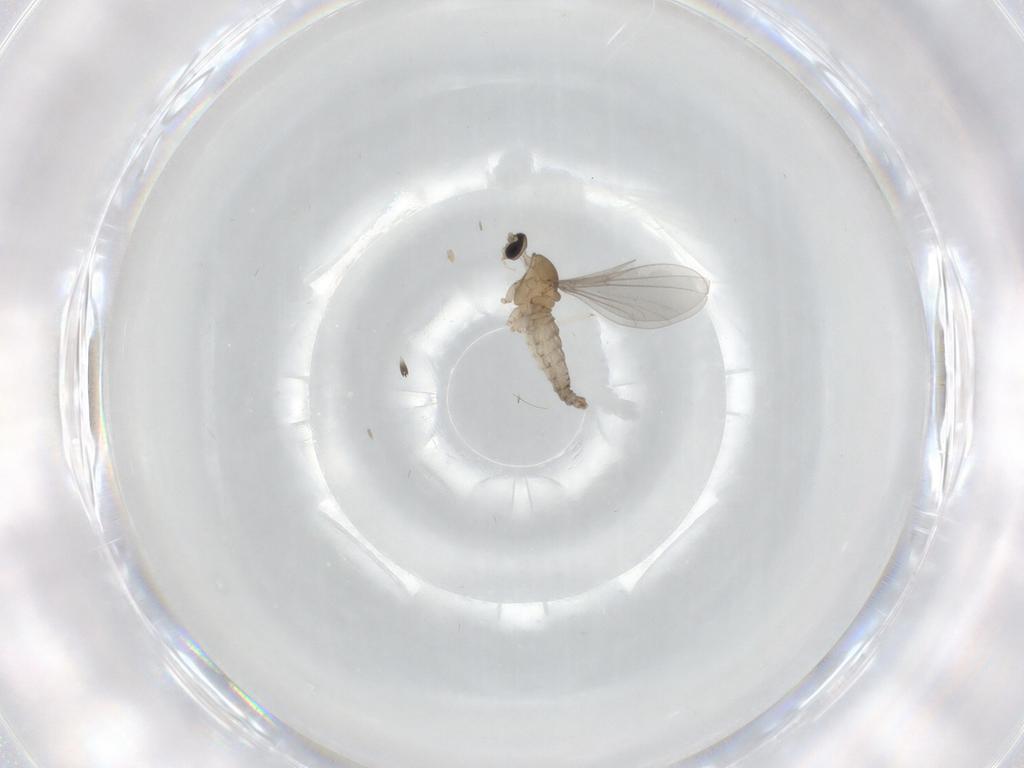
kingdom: Animalia
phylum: Arthropoda
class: Insecta
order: Diptera
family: Cecidomyiidae
